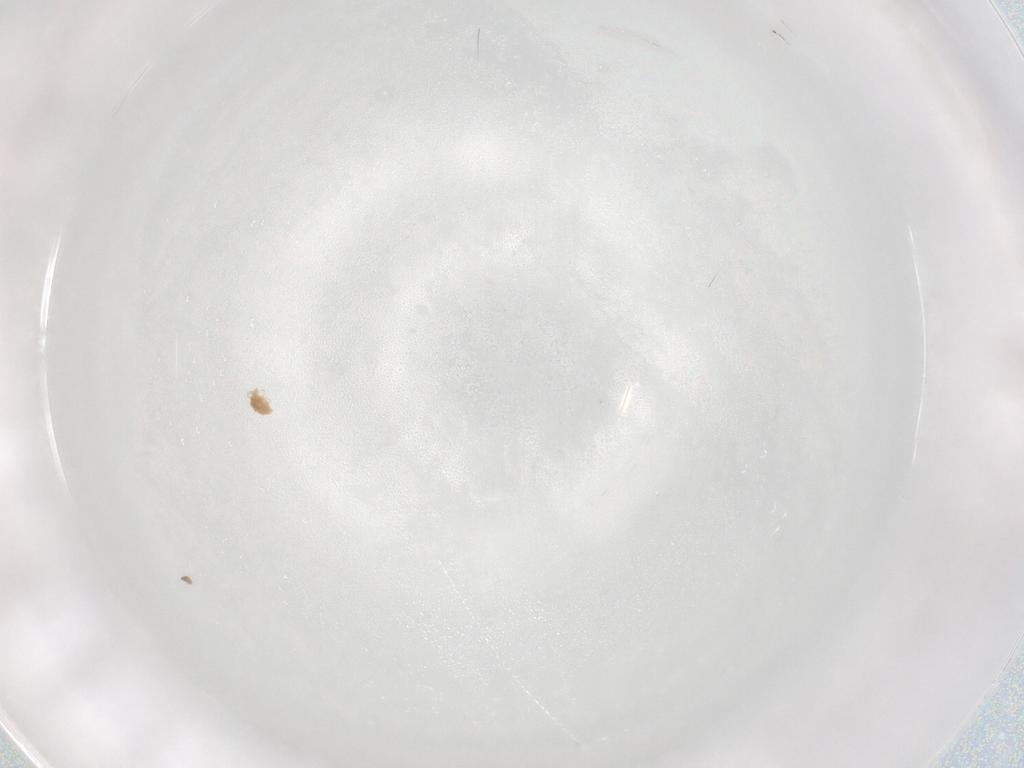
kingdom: Animalia
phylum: Arthropoda
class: Arachnida
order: Trombidiformes
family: Penthalodidae
